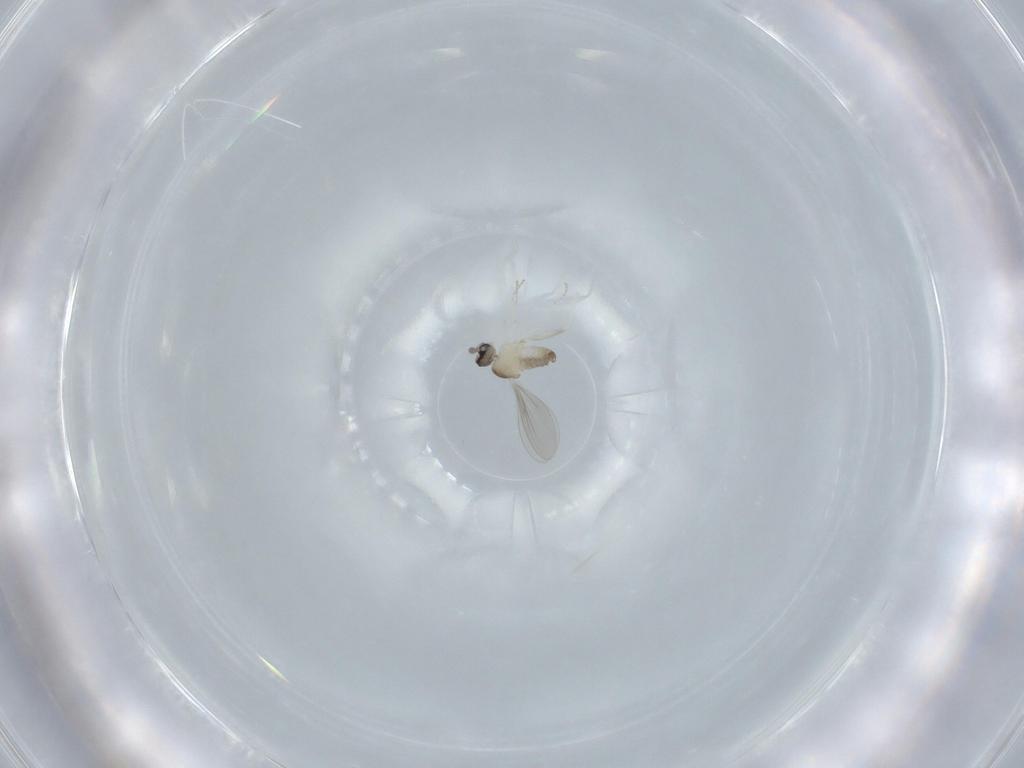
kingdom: Animalia
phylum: Arthropoda
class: Insecta
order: Diptera
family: Cecidomyiidae
